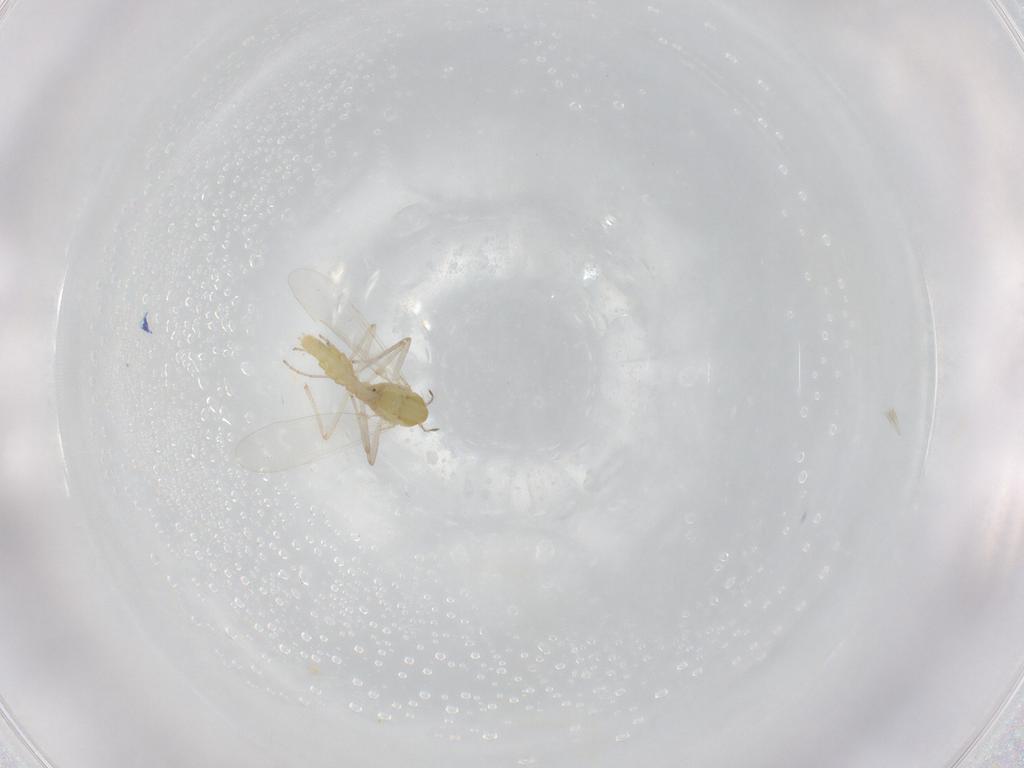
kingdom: Animalia
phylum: Arthropoda
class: Insecta
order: Diptera
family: Chironomidae
